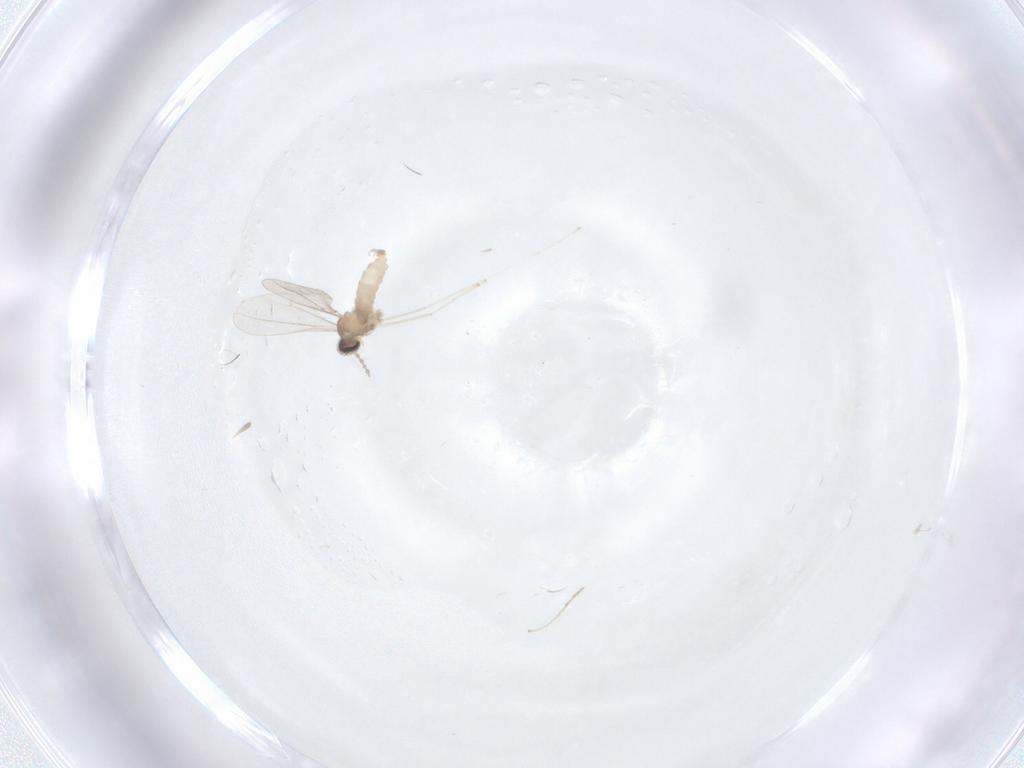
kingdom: Animalia
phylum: Arthropoda
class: Insecta
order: Diptera
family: Cecidomyiidae
